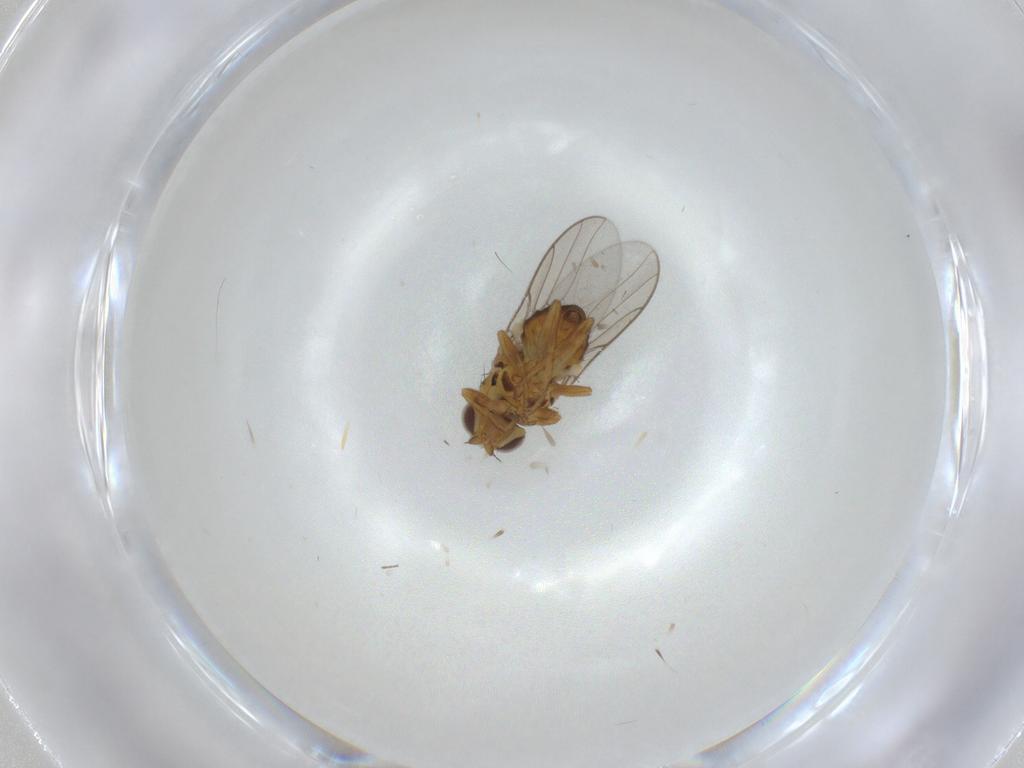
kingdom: Animalia
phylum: Arthropoda
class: Insecta
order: Diptera
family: Chloropidae
